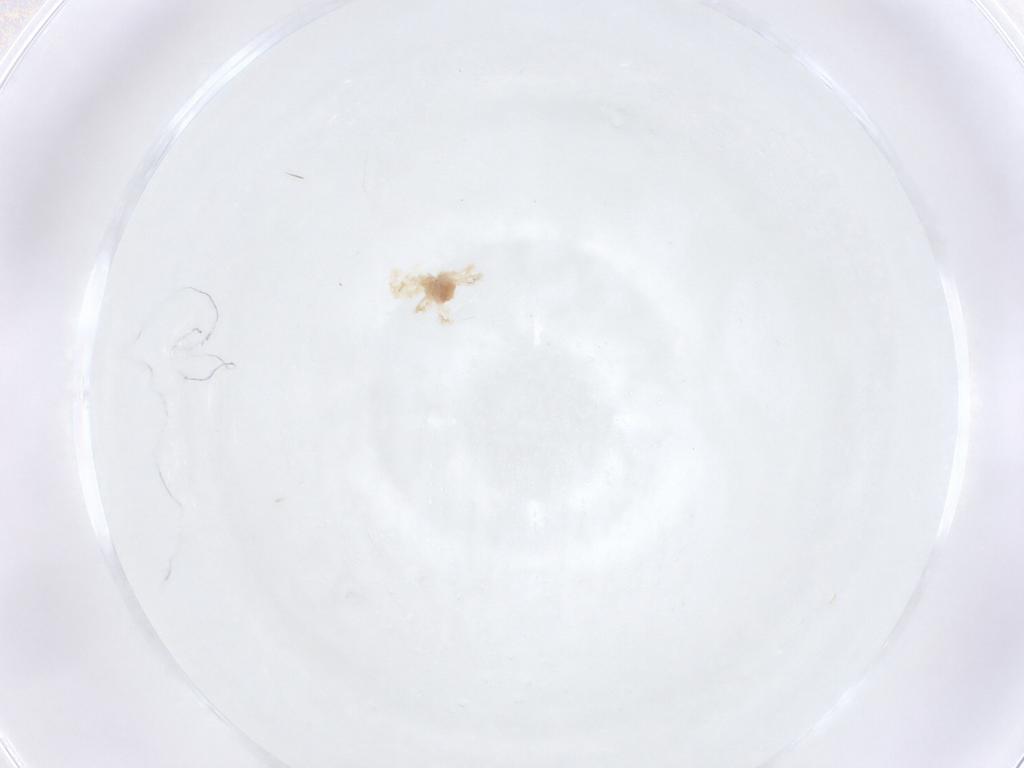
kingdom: Animalia
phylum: Arthropoda
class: Arachnida
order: Trombidiformes
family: Anystidae
